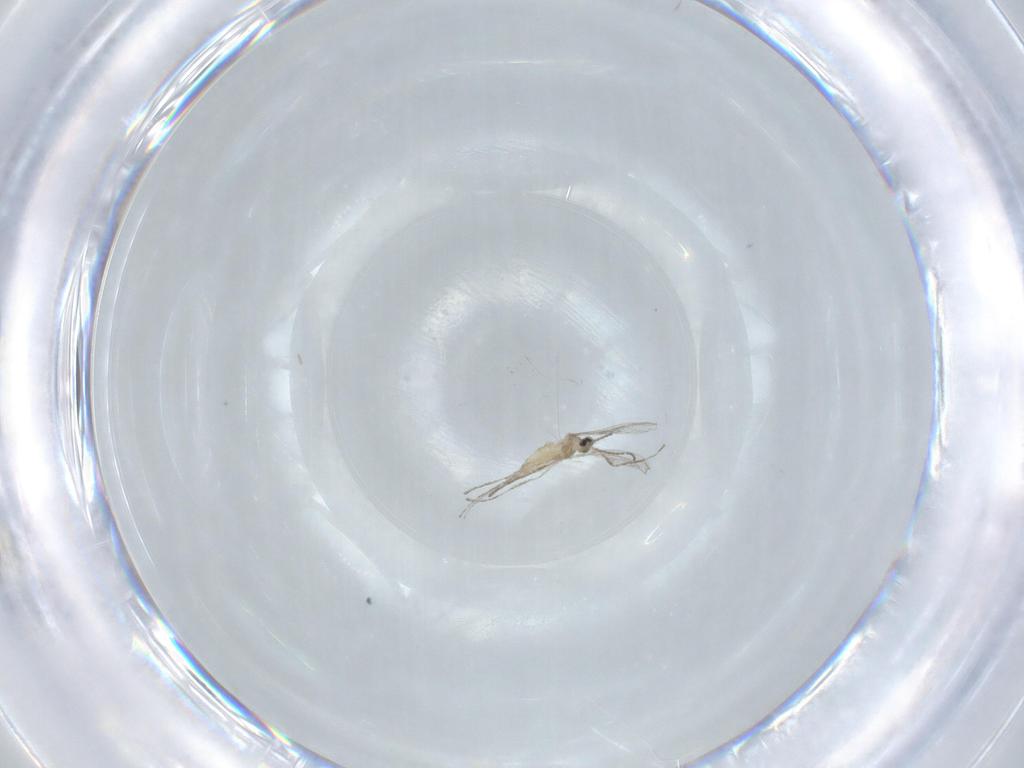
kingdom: Animalia
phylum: Arthropoda
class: Insecta
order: Diptera
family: Cecidomyiidae
